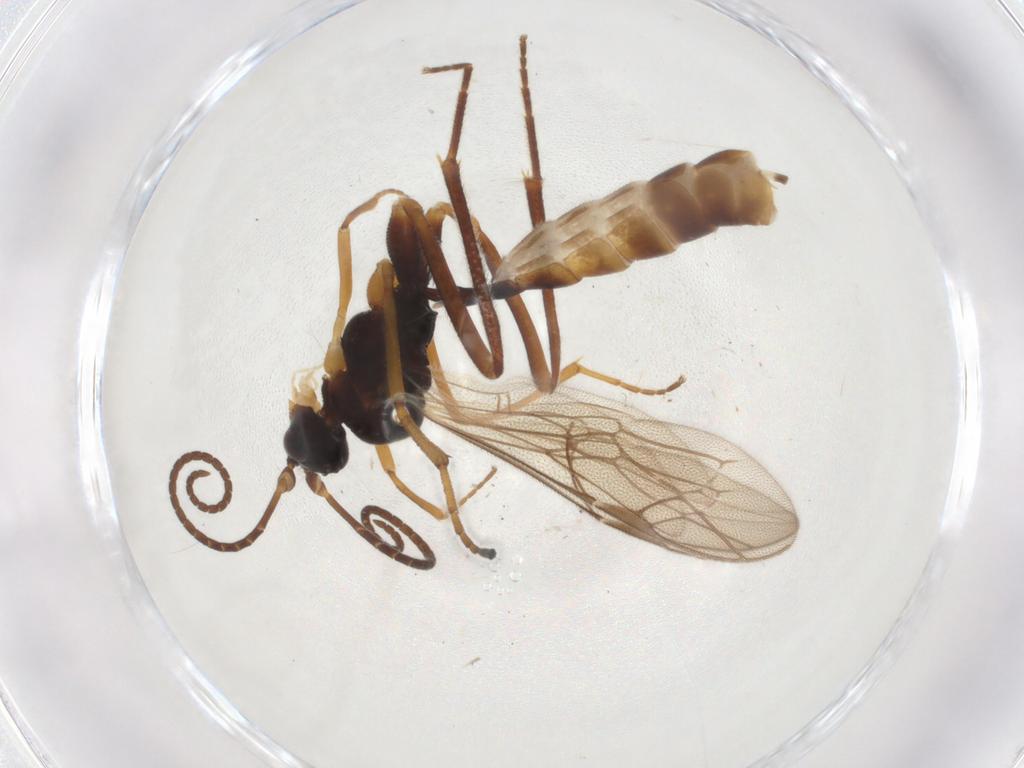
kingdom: Animalia
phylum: Arthropoda
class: Insecta
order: Hymenoptera
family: Ichneumonidae
